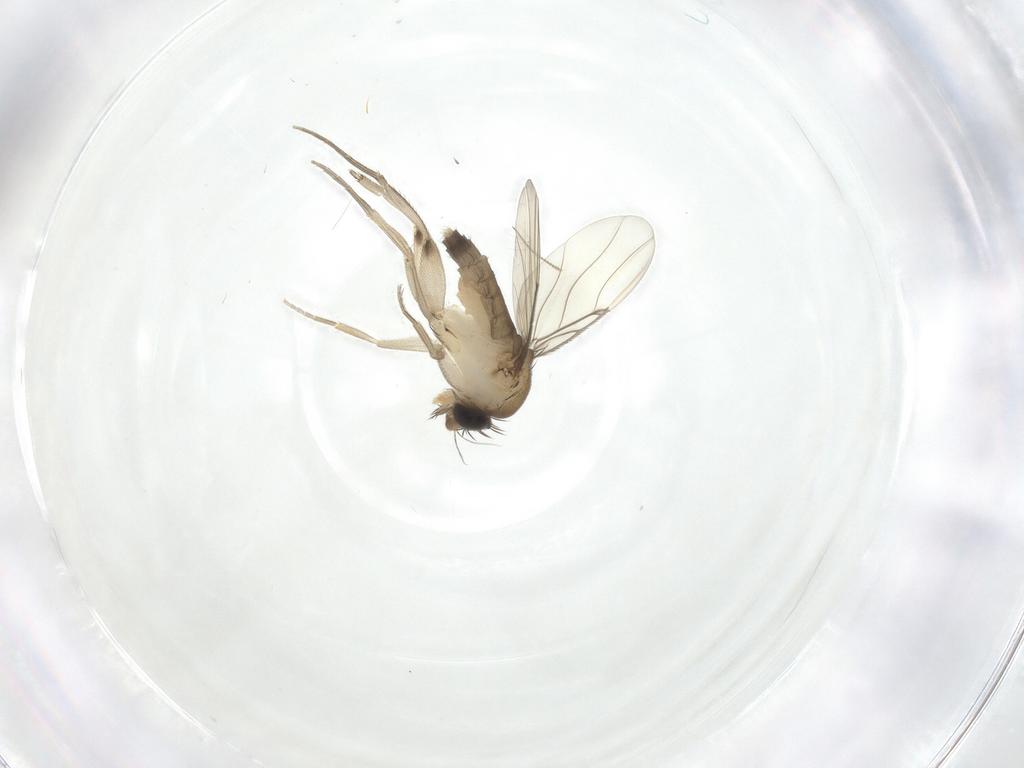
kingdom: Animalia
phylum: Arthropoda
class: Insecta
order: Diptera
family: Phoridae
